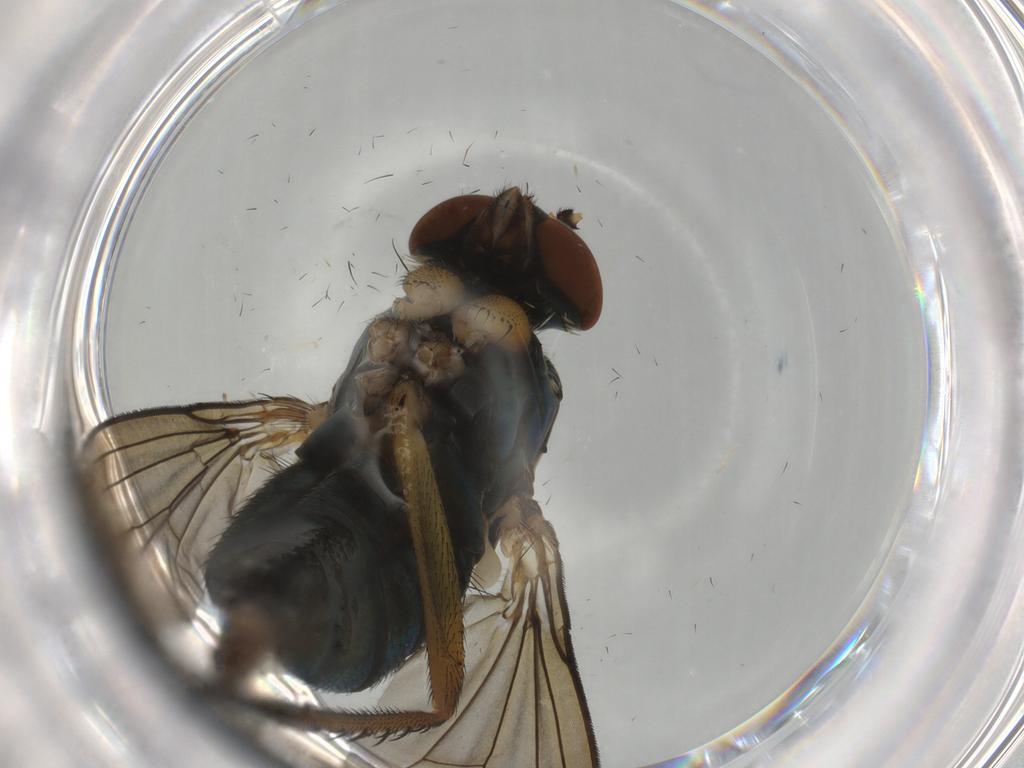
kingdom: Animalia
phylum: Arthropoda
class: Insecta
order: Diptera
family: Dolichopodidae
